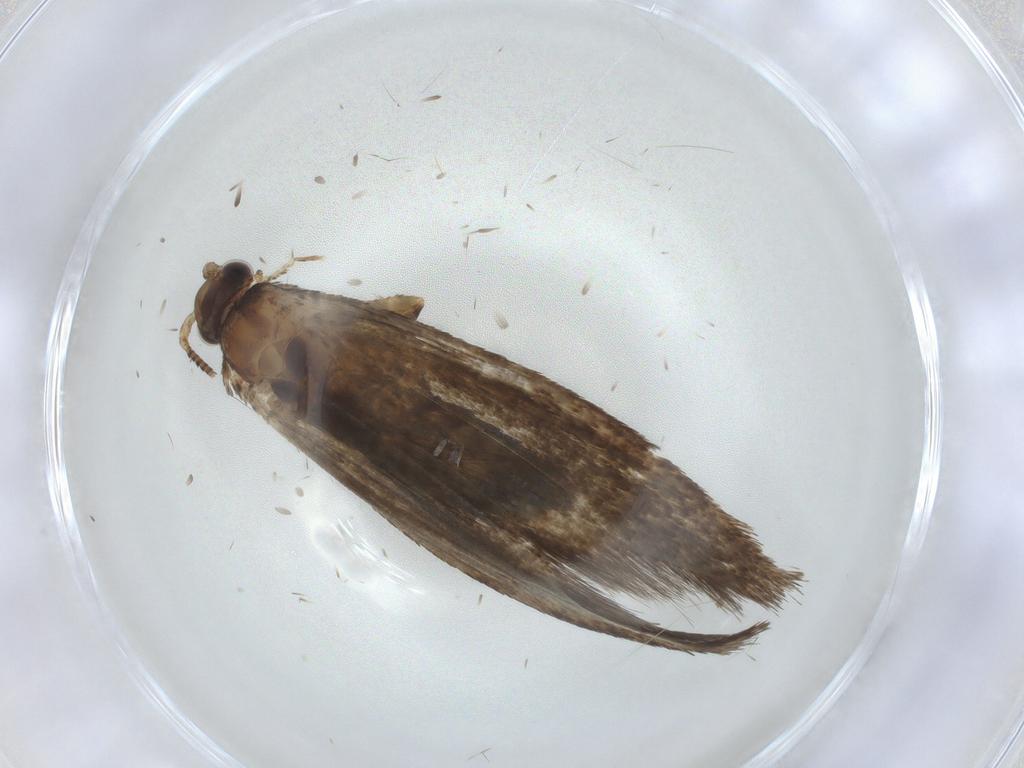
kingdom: Animalia
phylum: Arthropoda
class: Insecta
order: Lepidoptera
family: Crambidae
